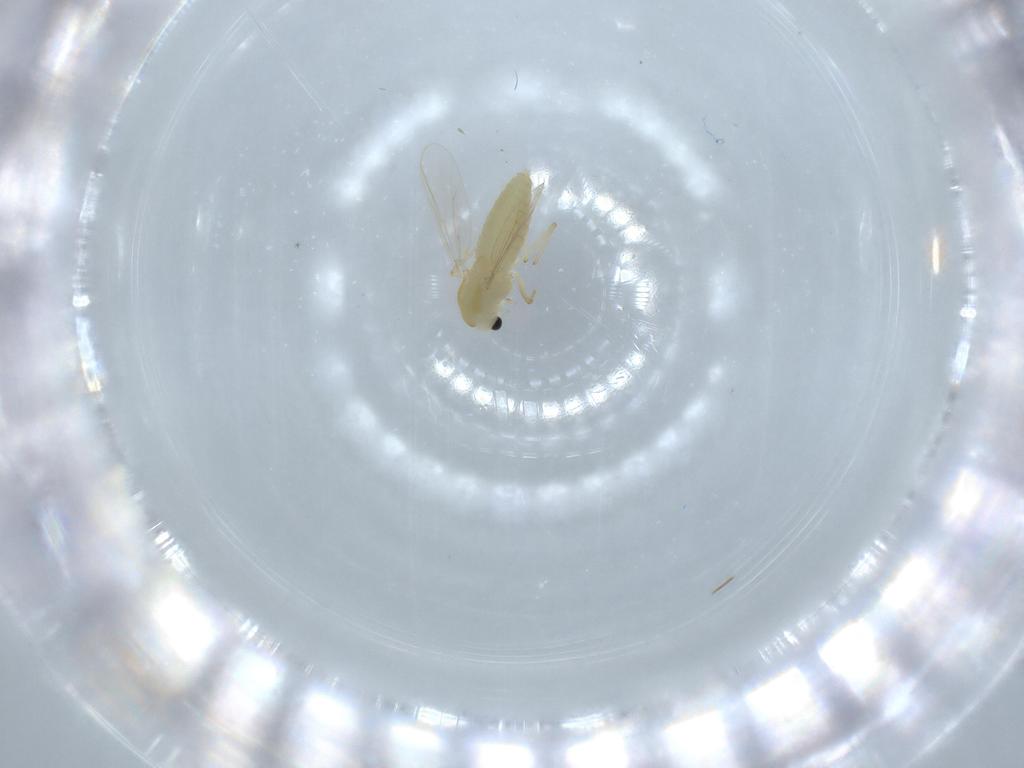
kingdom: Animalia
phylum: Arthropoda
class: Insecta
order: Diptera
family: Chironomidae
